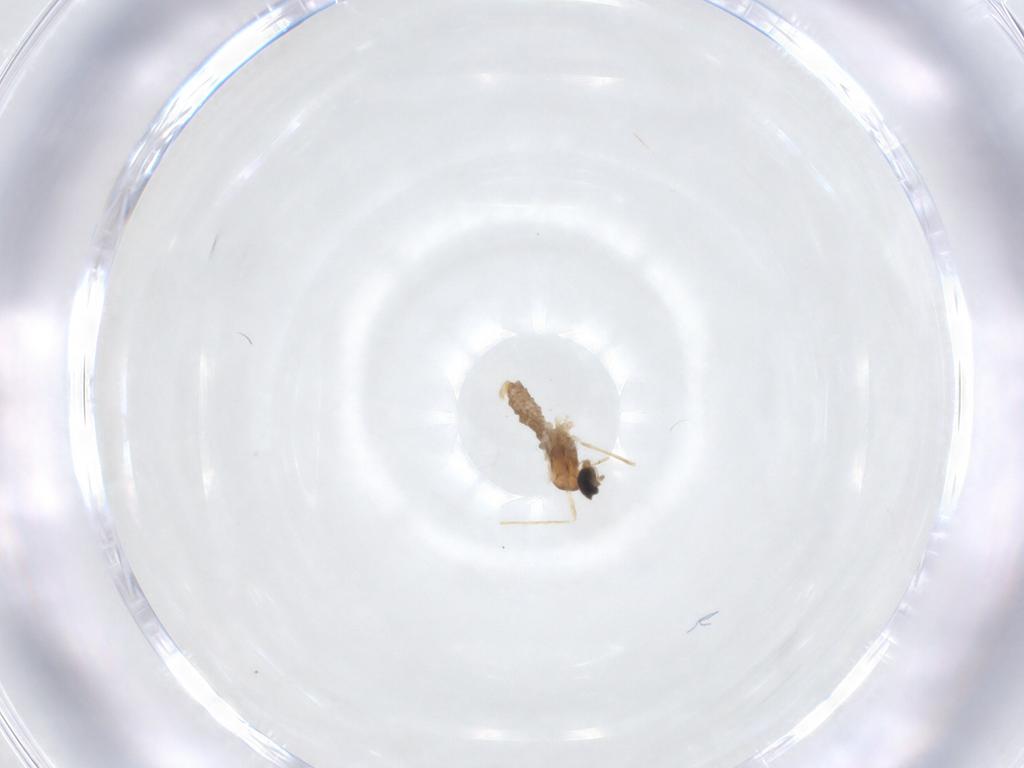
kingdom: Animalia
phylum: Arthropoda
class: Insecta
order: Diptera
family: Cecidomyiidae
